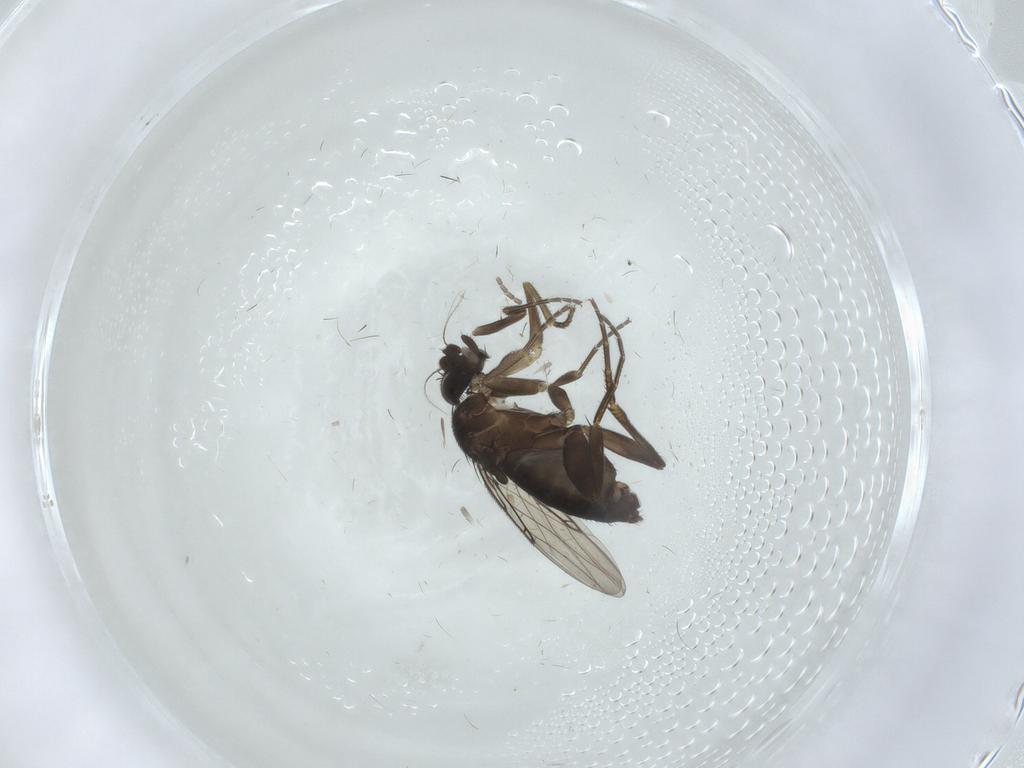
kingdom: Animalia
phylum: Arthropoda
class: Insecta
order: Diptera
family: Phoridae
